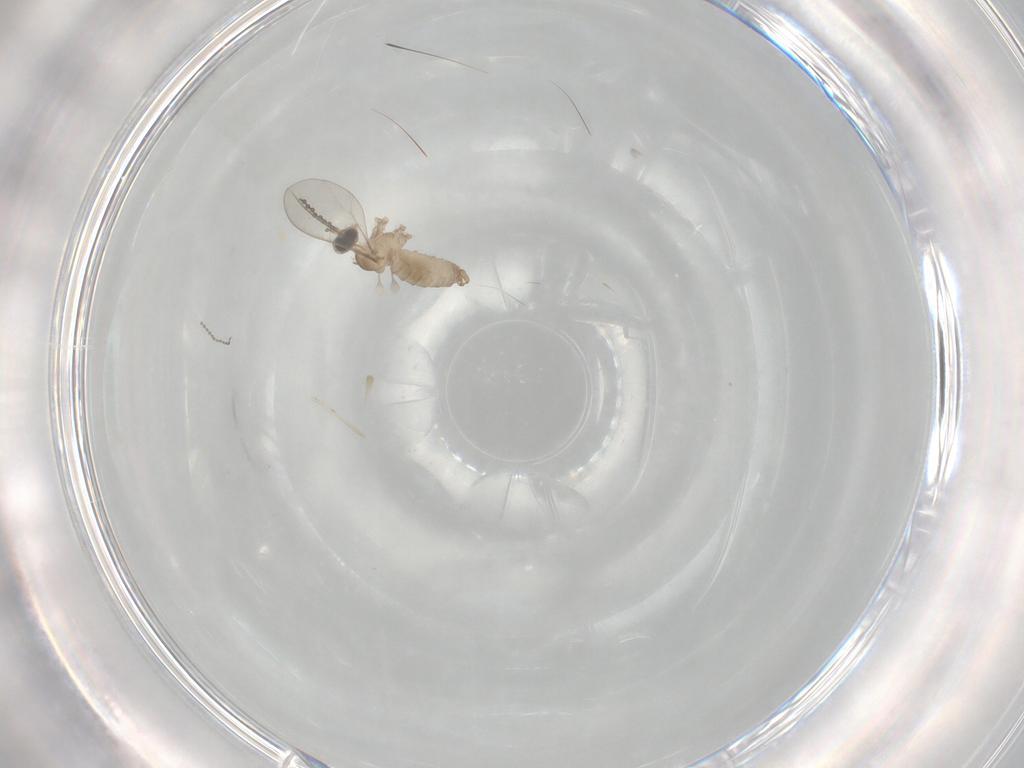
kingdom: Animalia
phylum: Arthropoda
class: Insecta
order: Diptera
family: Cecidomyiidae
